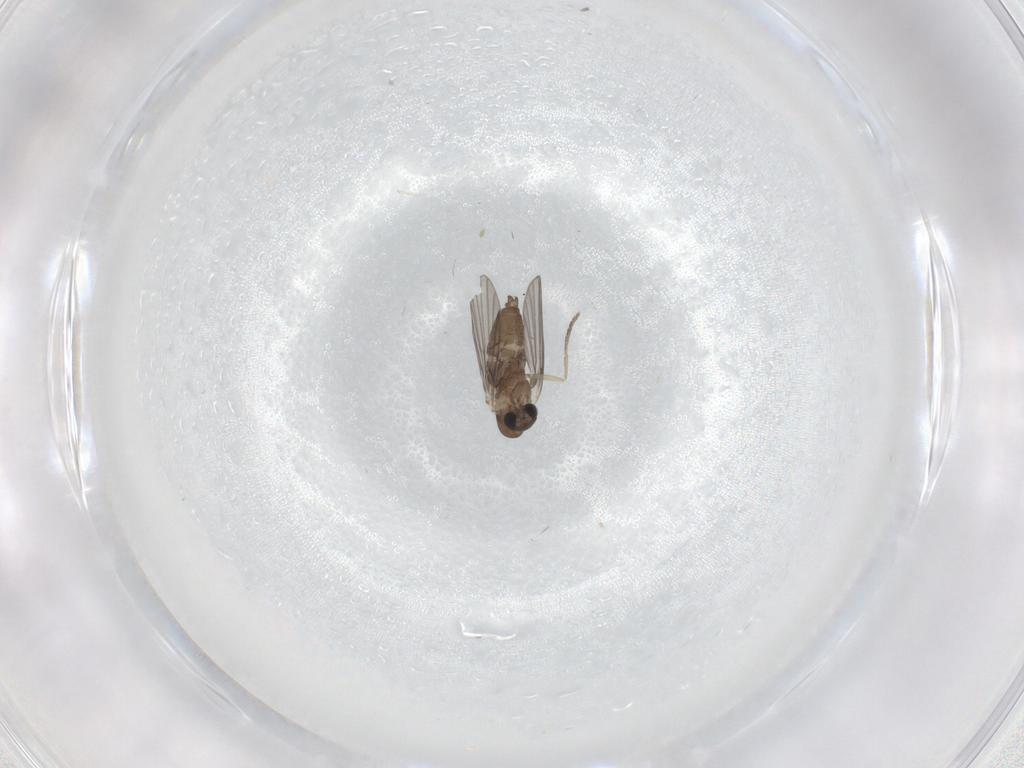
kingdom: Animalia
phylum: Arthropoda
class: Insecta
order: Diptera
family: Cecidomyiidae
